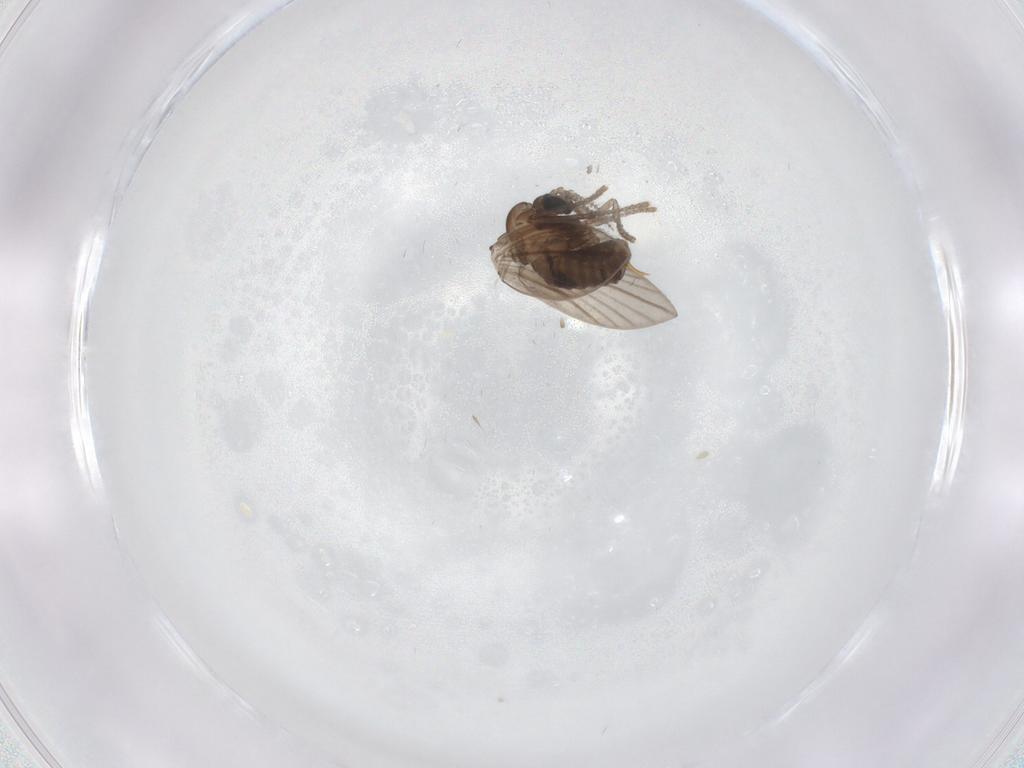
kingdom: Animalia
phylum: Arthropoda
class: Insecta
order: Diptera
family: Psychodidae
